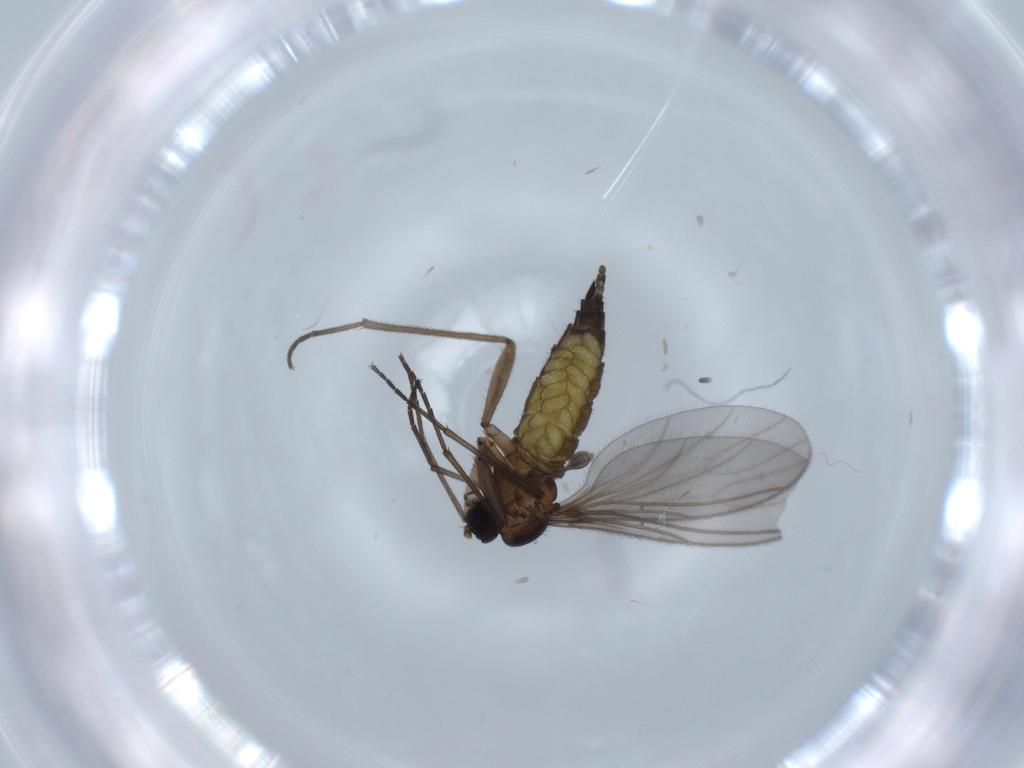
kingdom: Animalia
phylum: Arthropoda
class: Insecta
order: Diptera
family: Sciaridae
